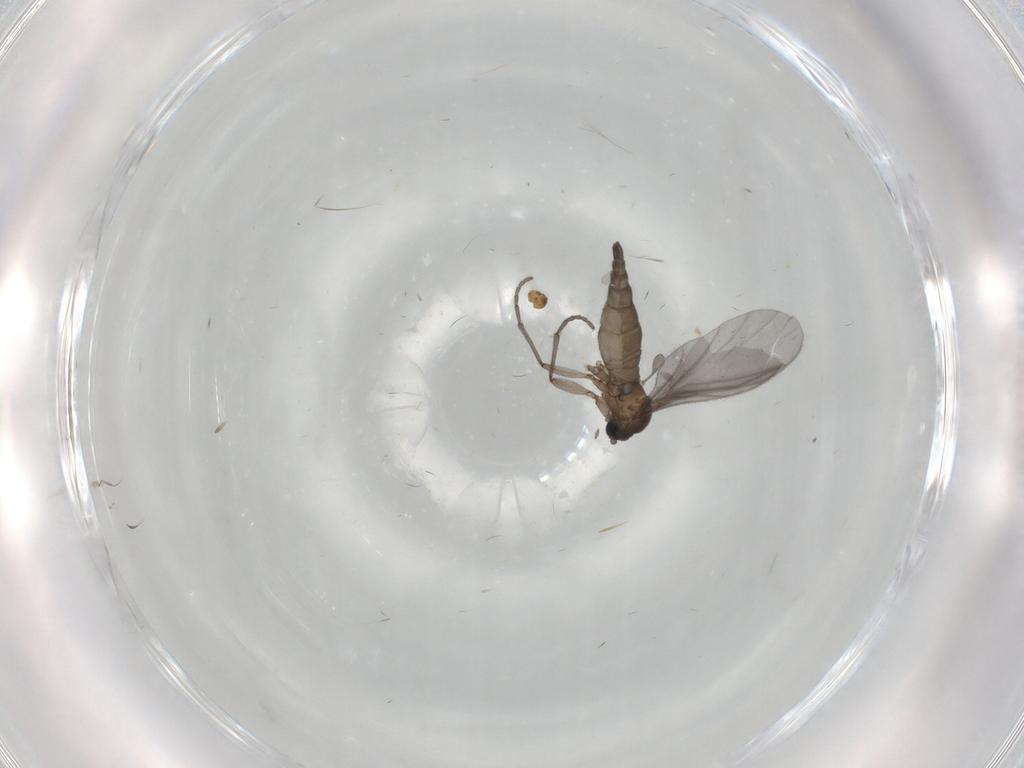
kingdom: Animalia
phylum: Arthropoda
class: Insecta
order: Diptera
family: Sciaridae
